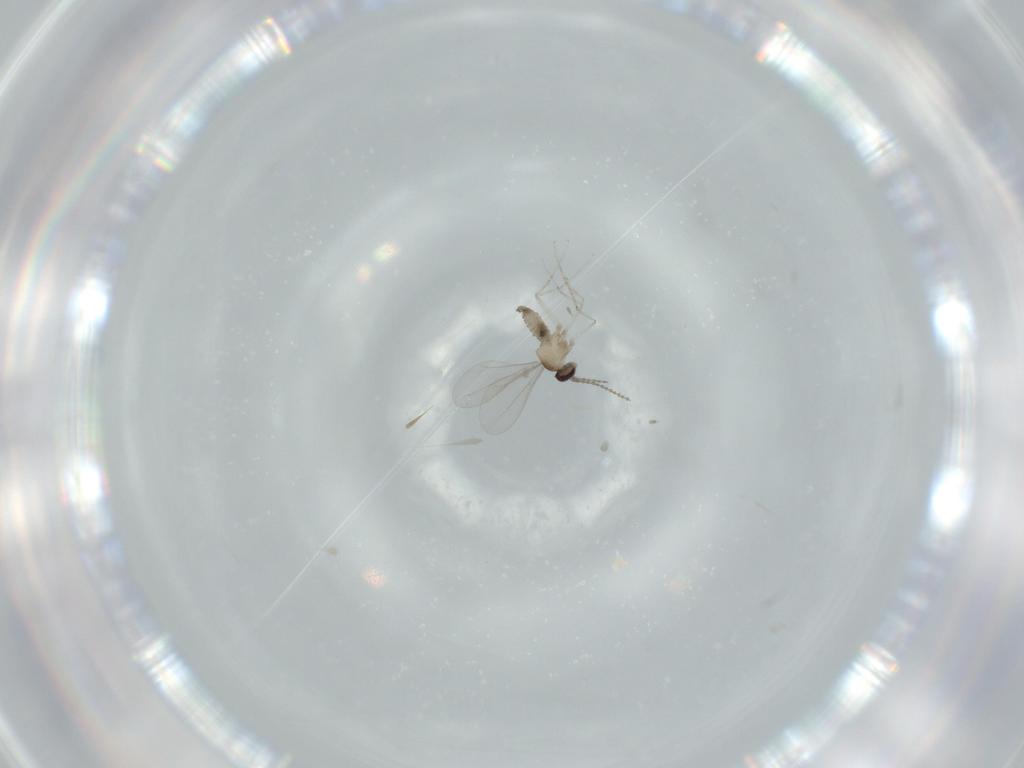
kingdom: Animalia
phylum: Arthropoda
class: Insecta
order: Diptera
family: Cecidomyiidae
